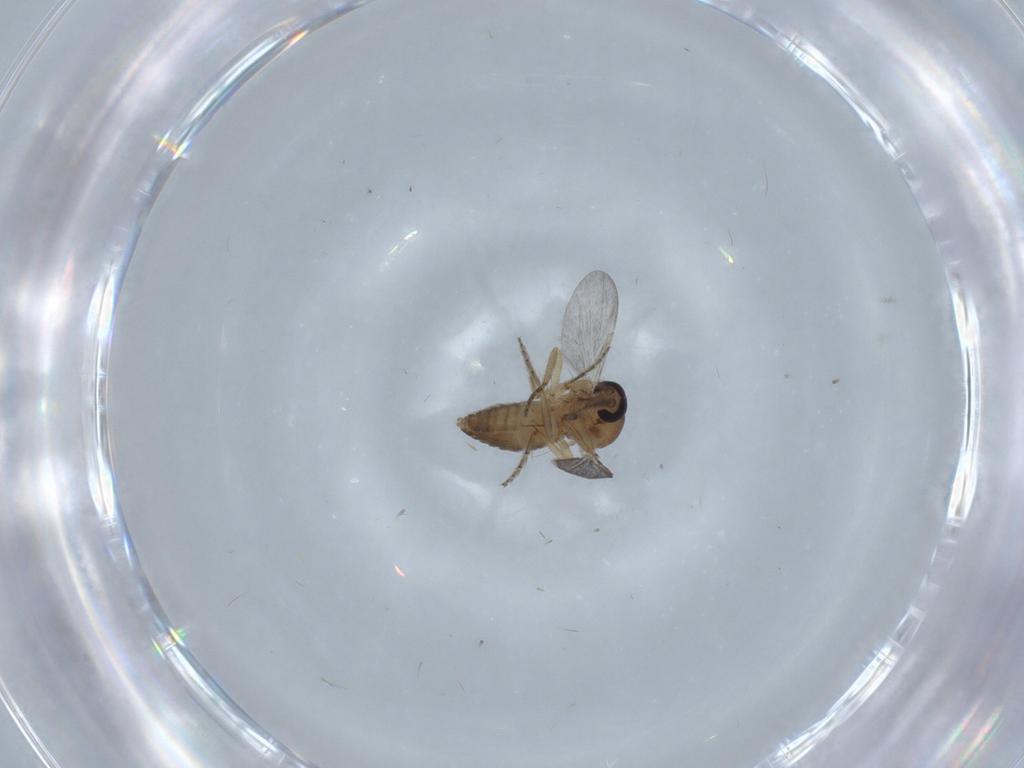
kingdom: Animalia
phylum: Arthropoda
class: Insecta
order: Diptera
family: Ceratopogonidae
